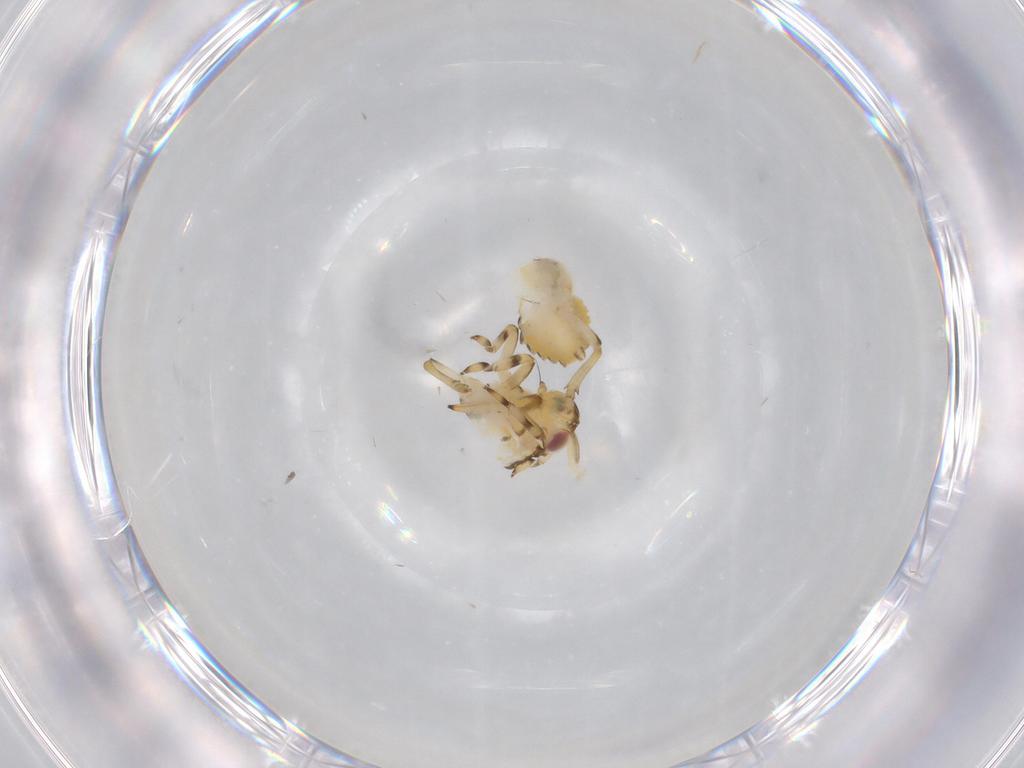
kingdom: Animalia
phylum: Arthropoda
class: Insecta
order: Hemiptera
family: Issidae
